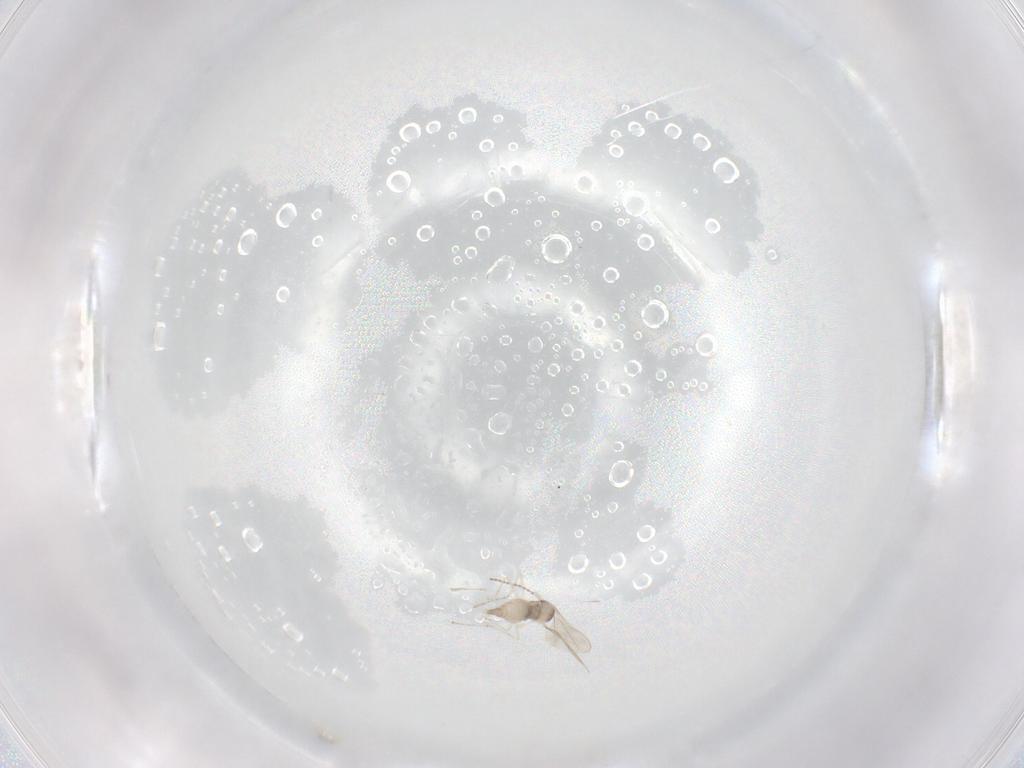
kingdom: Animalia
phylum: Arthropoda
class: Insecta
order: Diptera
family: Cecidomyiidae
